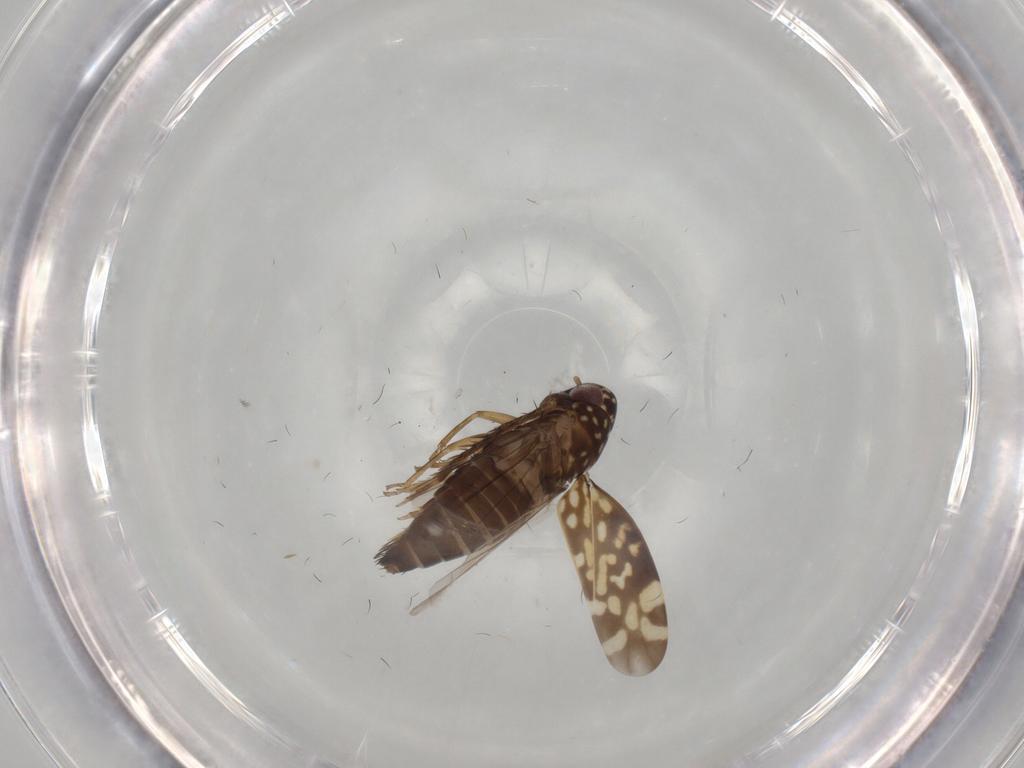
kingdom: Animalia
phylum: Arthropoda
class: Insecta
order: Hemiptera
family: Cicadellidae
